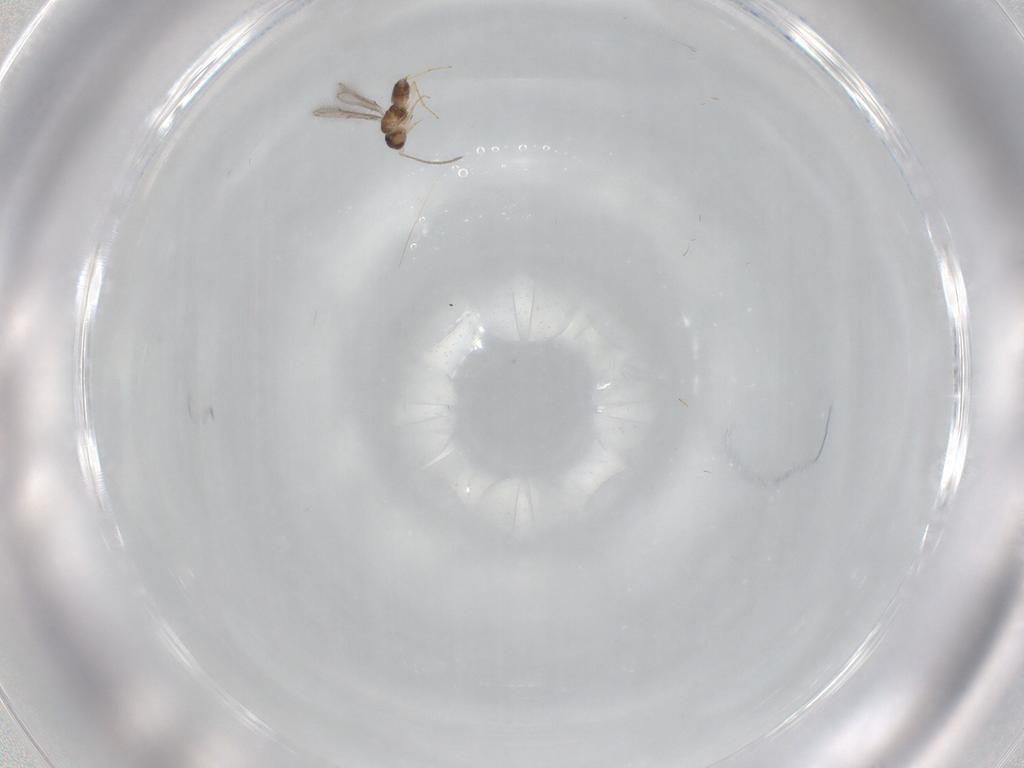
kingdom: Animalia
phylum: Arthropoda
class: Insecta
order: Hymenoptera
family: Mymaridae
